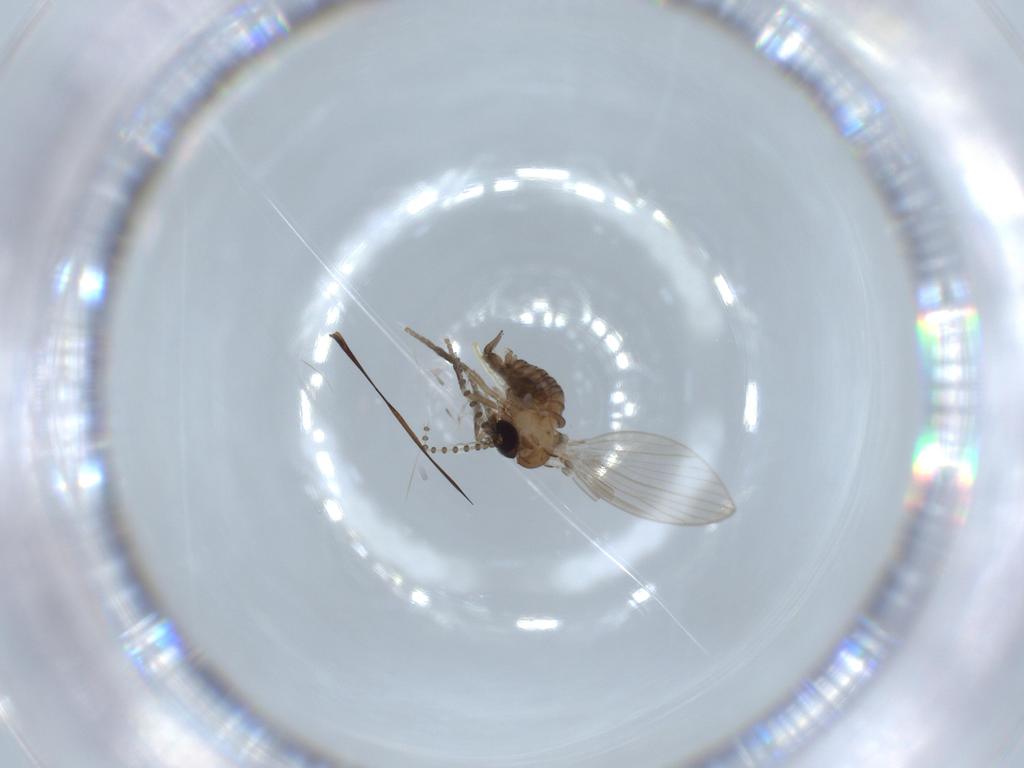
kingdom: Animalia
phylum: Arthropoda
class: Insecta
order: Diptera
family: Psychodidae
